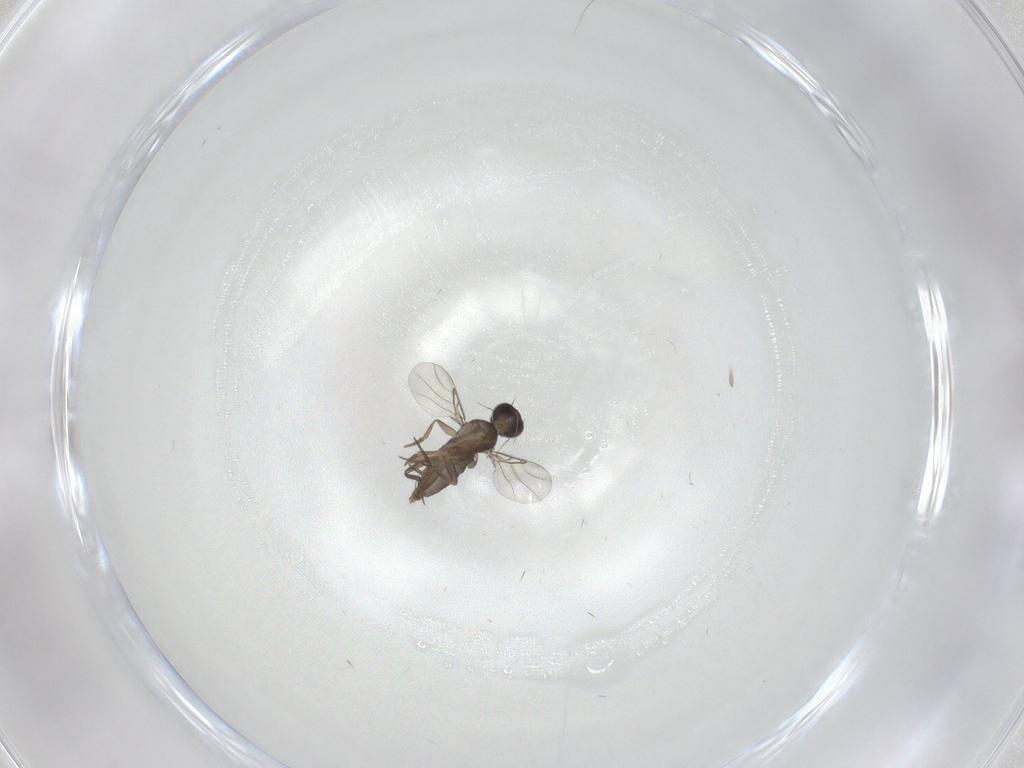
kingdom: Animalia
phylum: Arthropoda
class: Insecta
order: Diptera
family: Phoridae
